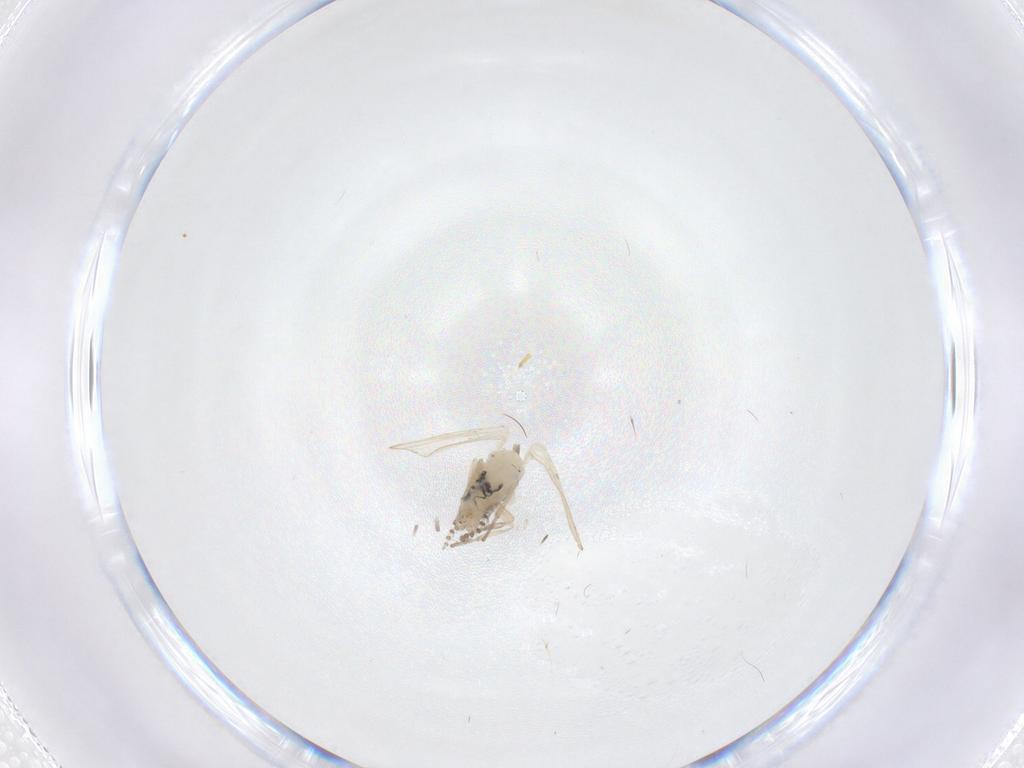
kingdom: Animalia
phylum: Arthropoda
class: Insecta
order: Diptera
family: Psychodidae
